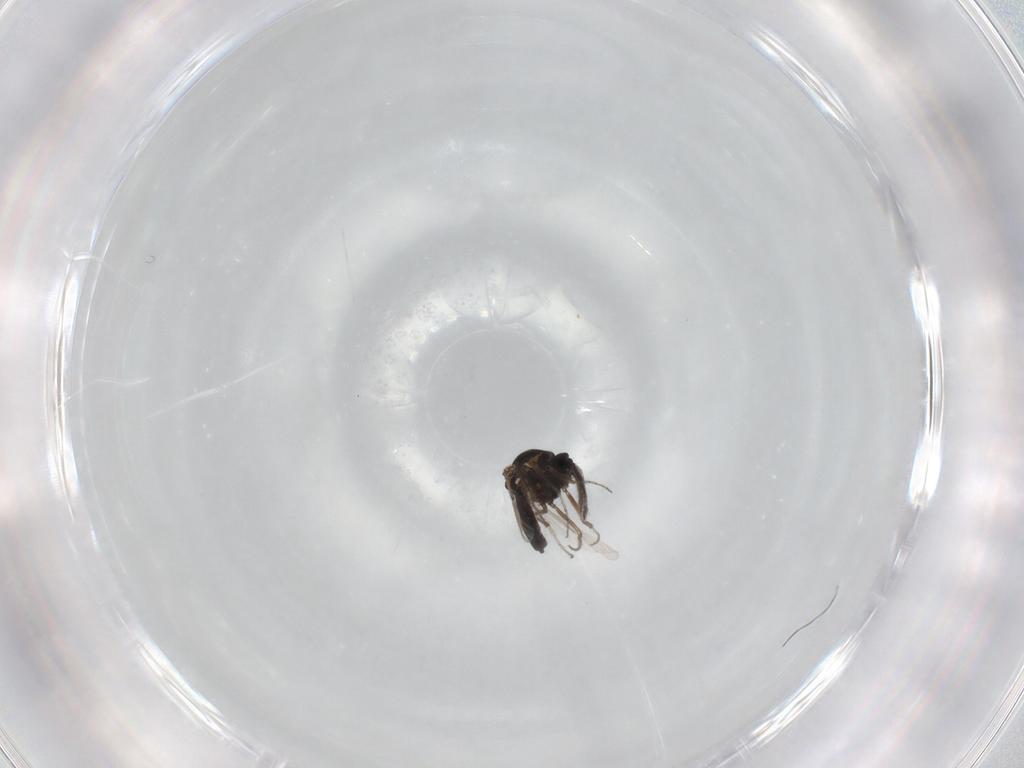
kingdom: Animalia
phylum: Arthropoda
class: Insecta
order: Diptera
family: Ceratopogonidae
